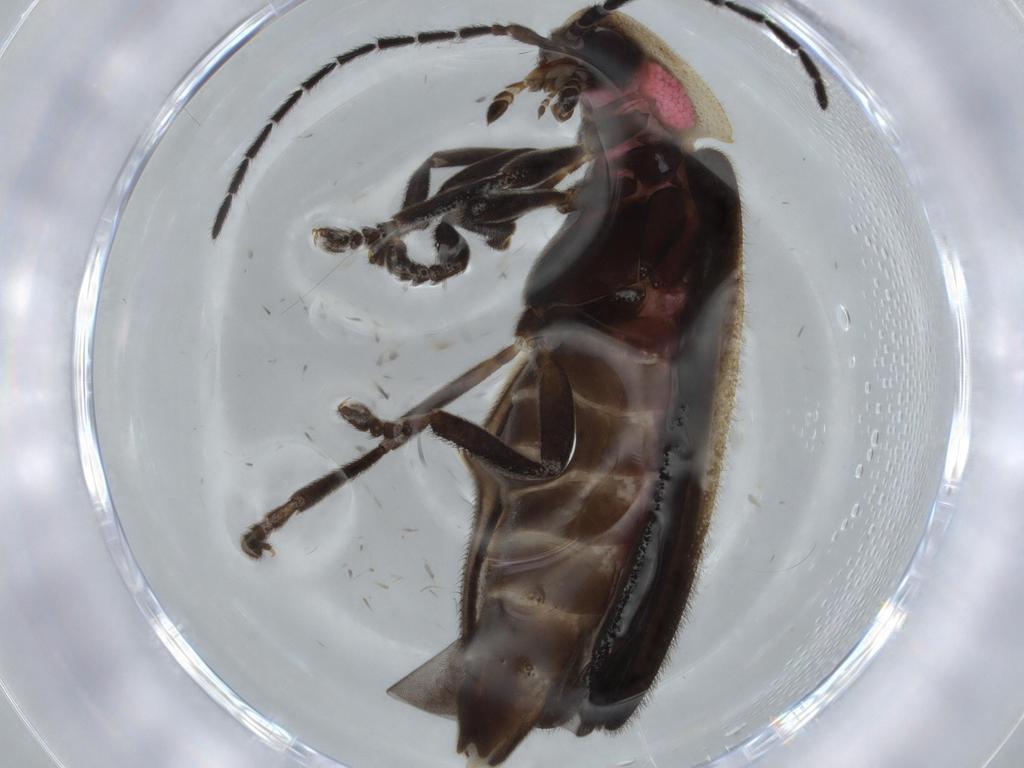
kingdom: Animalia
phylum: Arthropoda
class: Insecta
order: Coleoptera
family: Lampyridae
